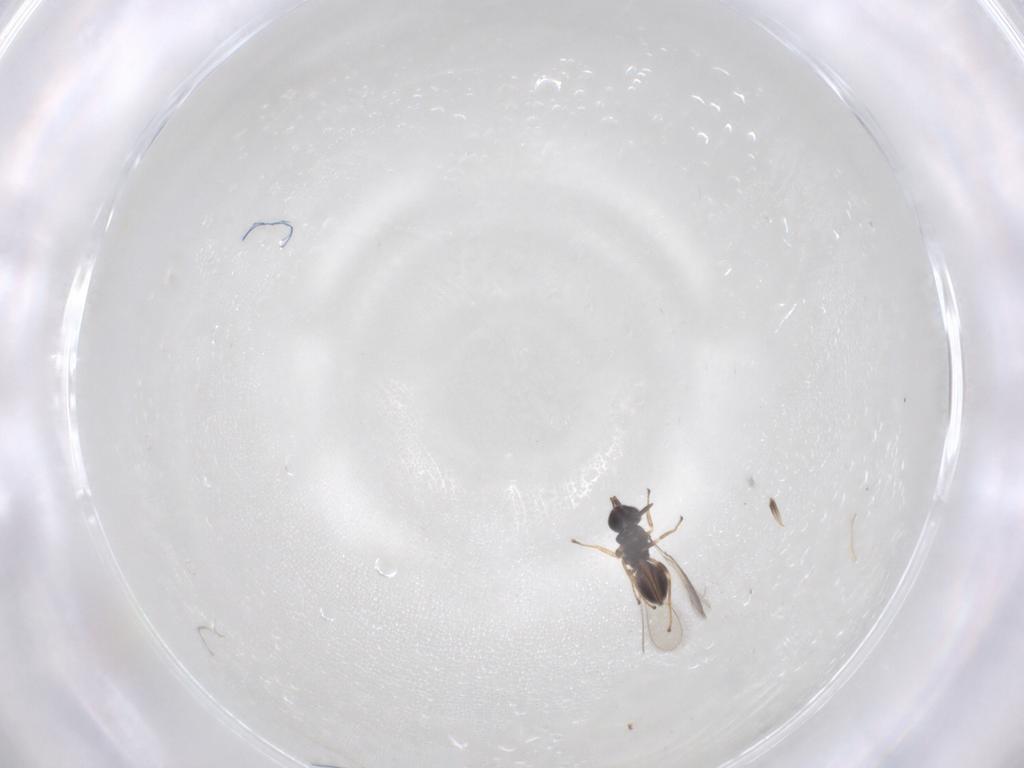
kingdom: Animalia
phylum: Arthropoda
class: Insecta
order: Hymenoptera
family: Mymaridae
